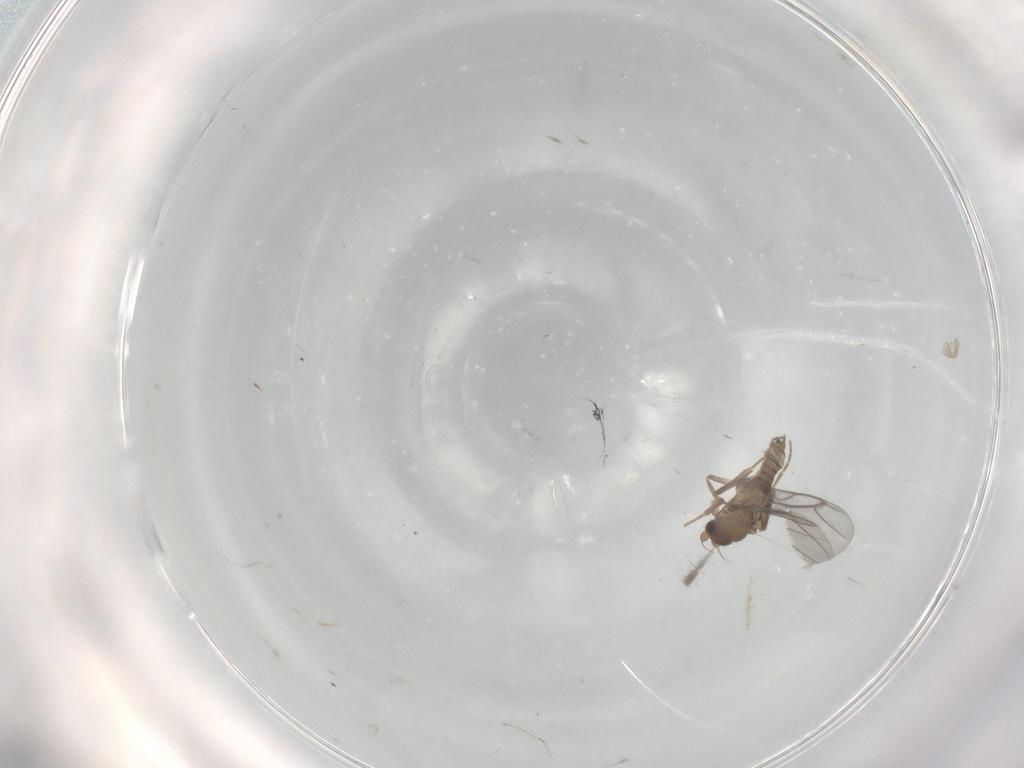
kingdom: Animalia
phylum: Arthropoda
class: Insecta
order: Diptera
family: Cecidomyiidae
